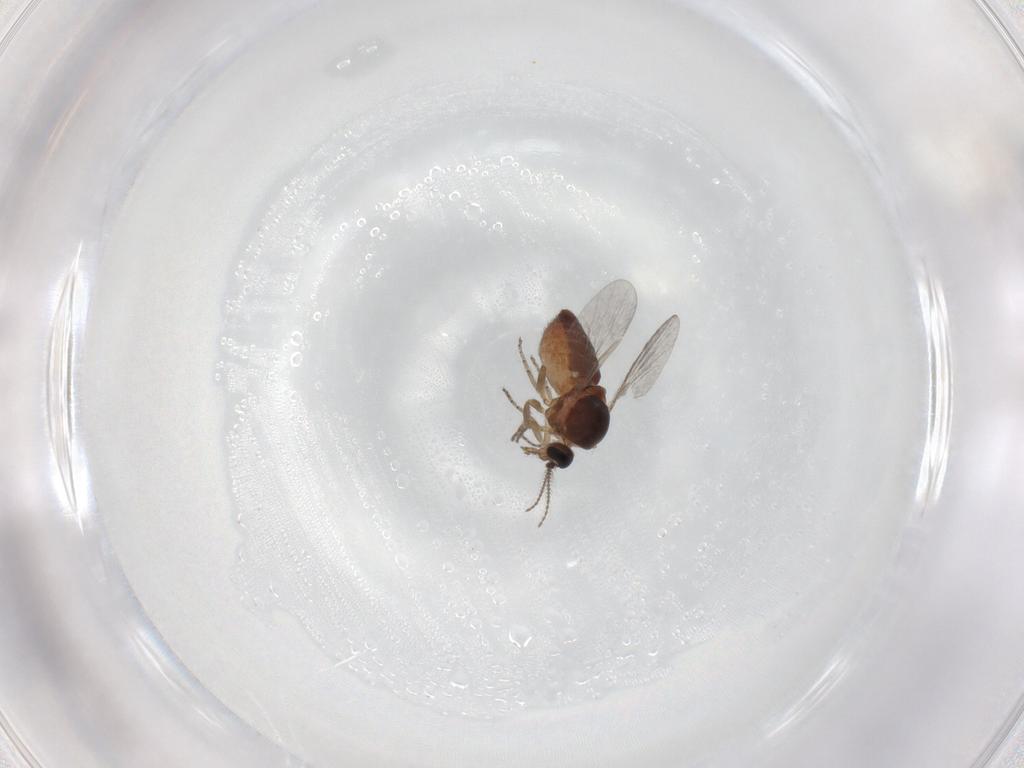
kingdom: Animalia
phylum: Arthropoda
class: Insecta
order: Diptera
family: Ceratopogonidae
